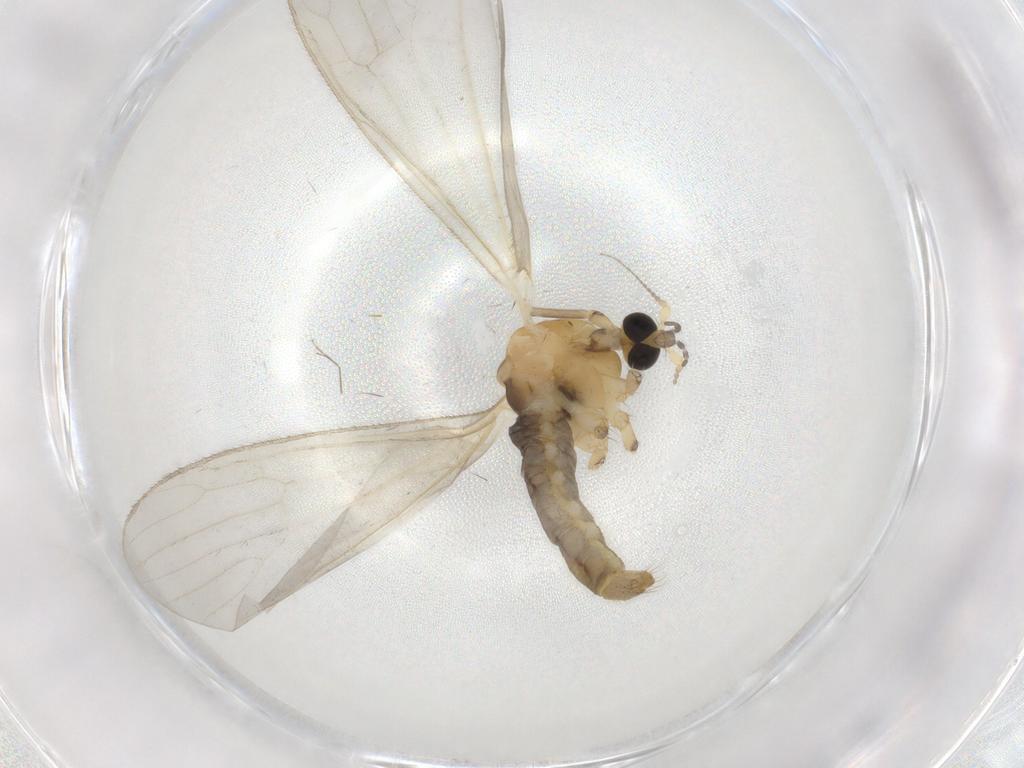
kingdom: Animalia
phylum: Arthropoda
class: Insecta
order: Diptera
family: Limoniidae
